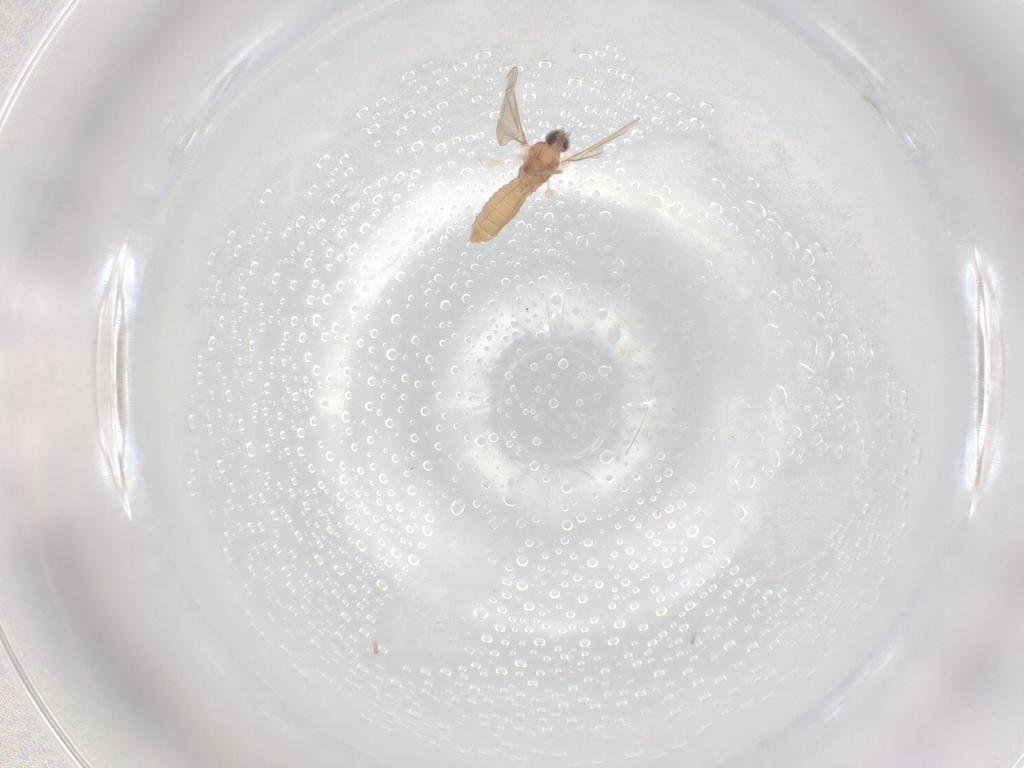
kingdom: Animalia
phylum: Arthropoda
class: Insecta
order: Diptera
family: Cecidomyiidae
